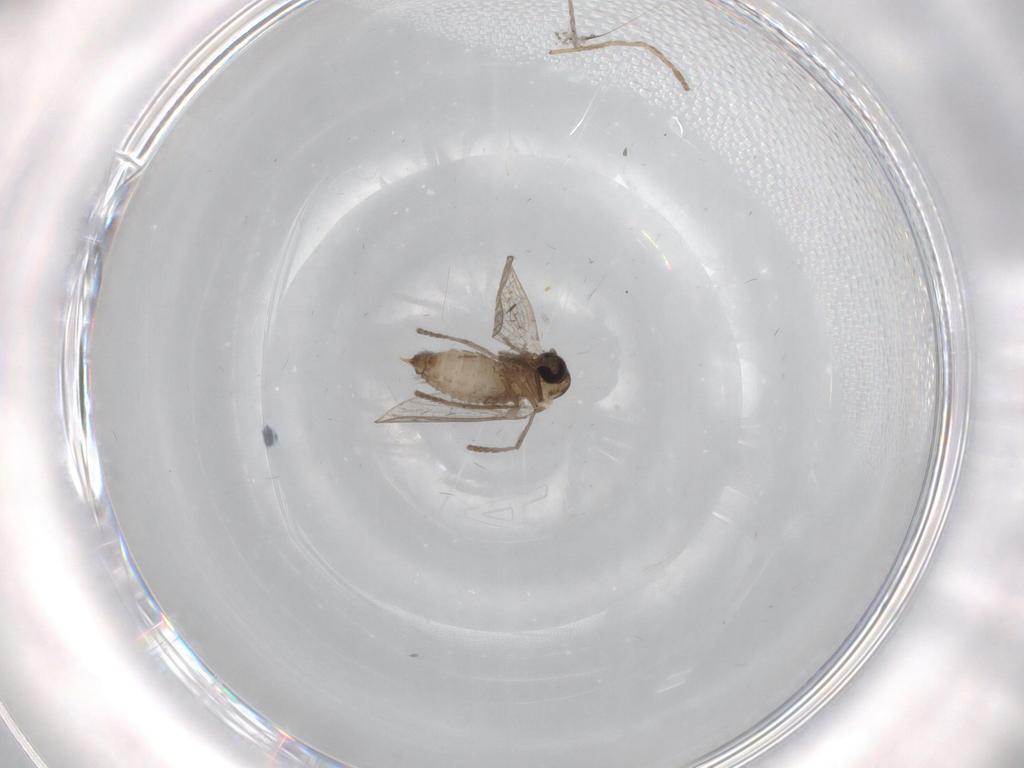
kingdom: Animalia
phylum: Arthropoda
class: Insecta
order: Diptera
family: Psychodidae
